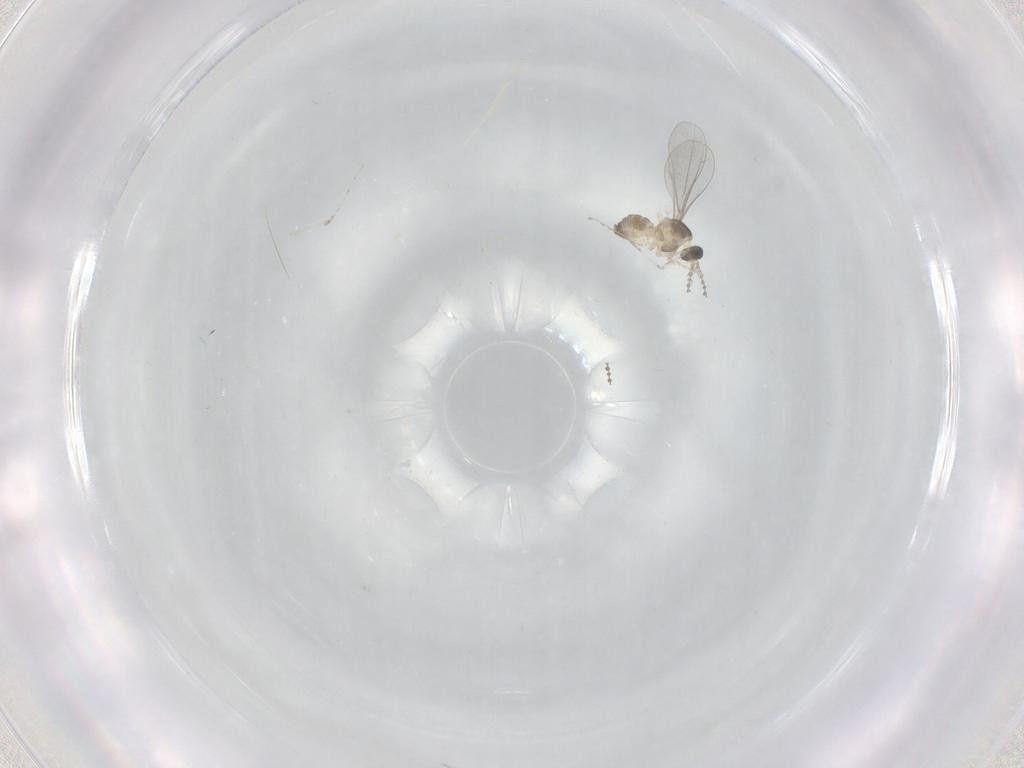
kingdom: Animalia
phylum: Arthropoda
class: Insecta
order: Diptera
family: Cecidomyiidae
